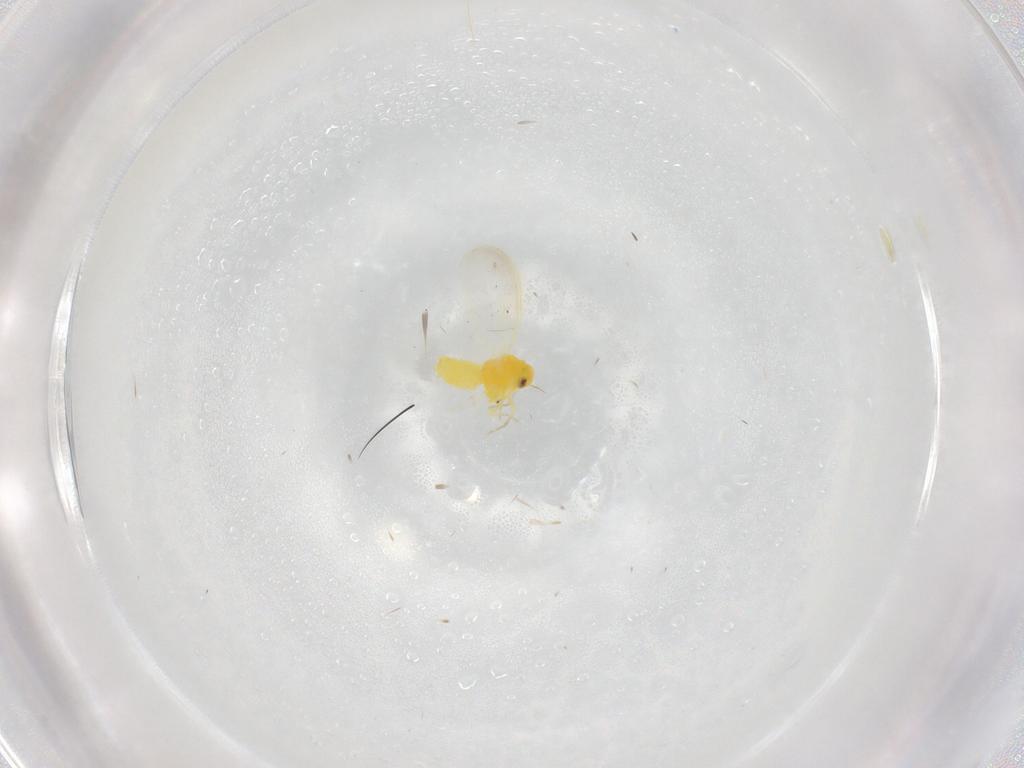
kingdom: Animalia
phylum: Arthropoda
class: Insecta
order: Hemiptera
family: Aleyrodidae
